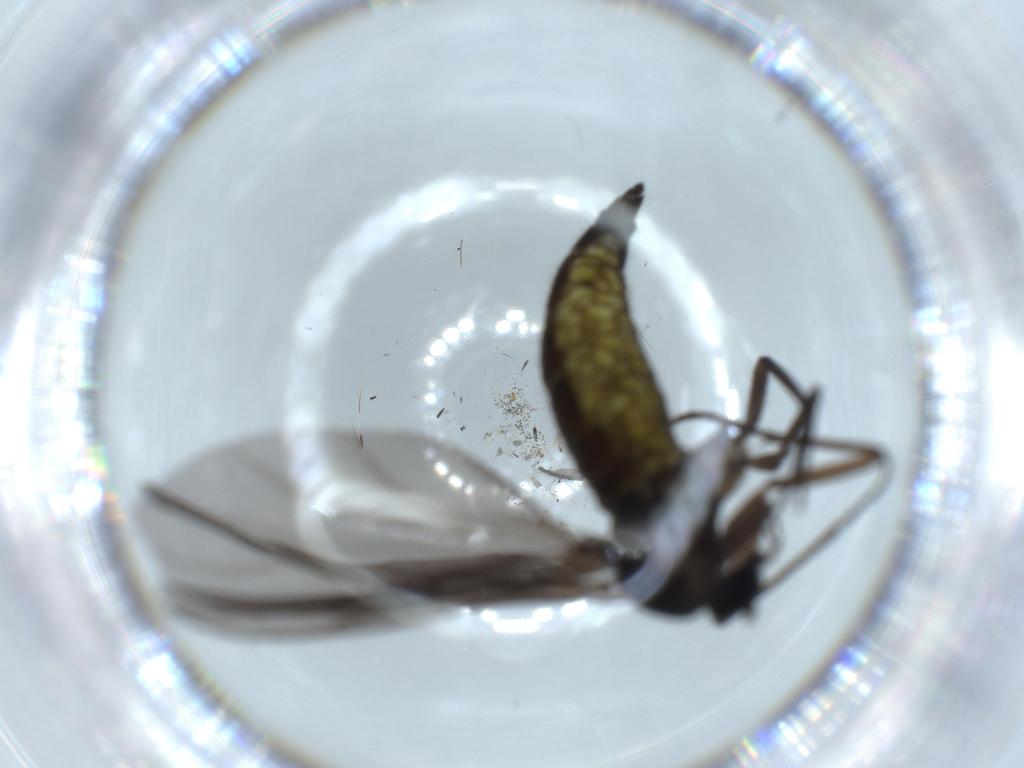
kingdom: Animalia
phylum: Arthropoda
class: Insecta
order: Diptera
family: Sciaridae
